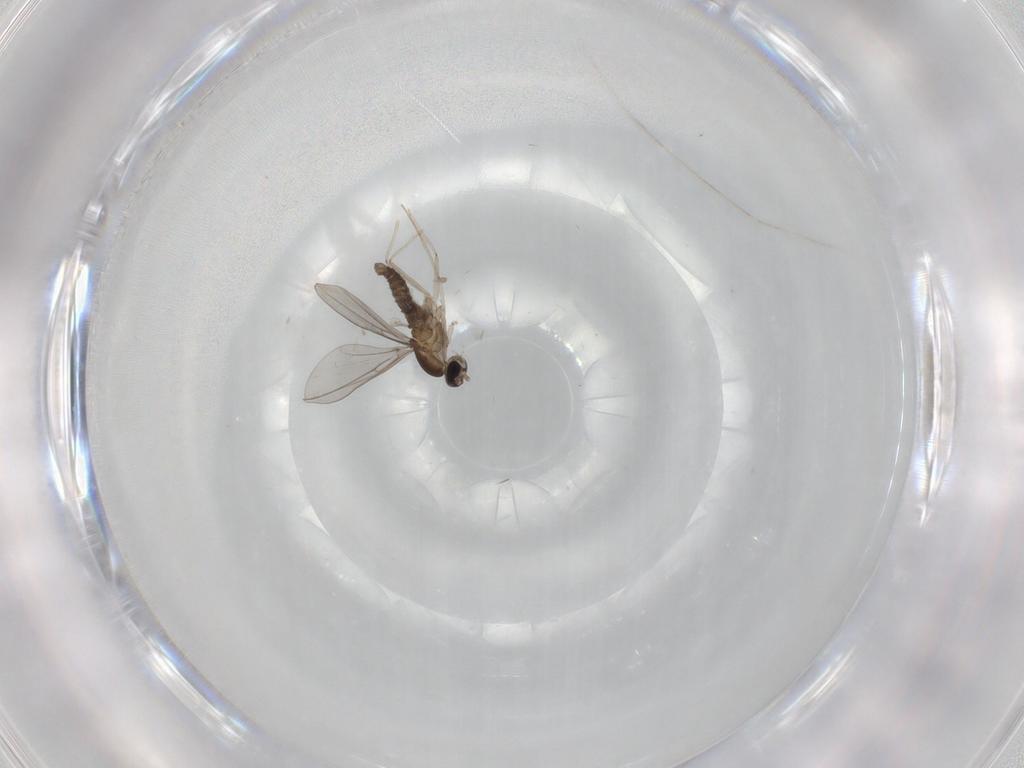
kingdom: Animalia
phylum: Arthropoda
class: Insecta
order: Diptera
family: Cecidomyiidae
